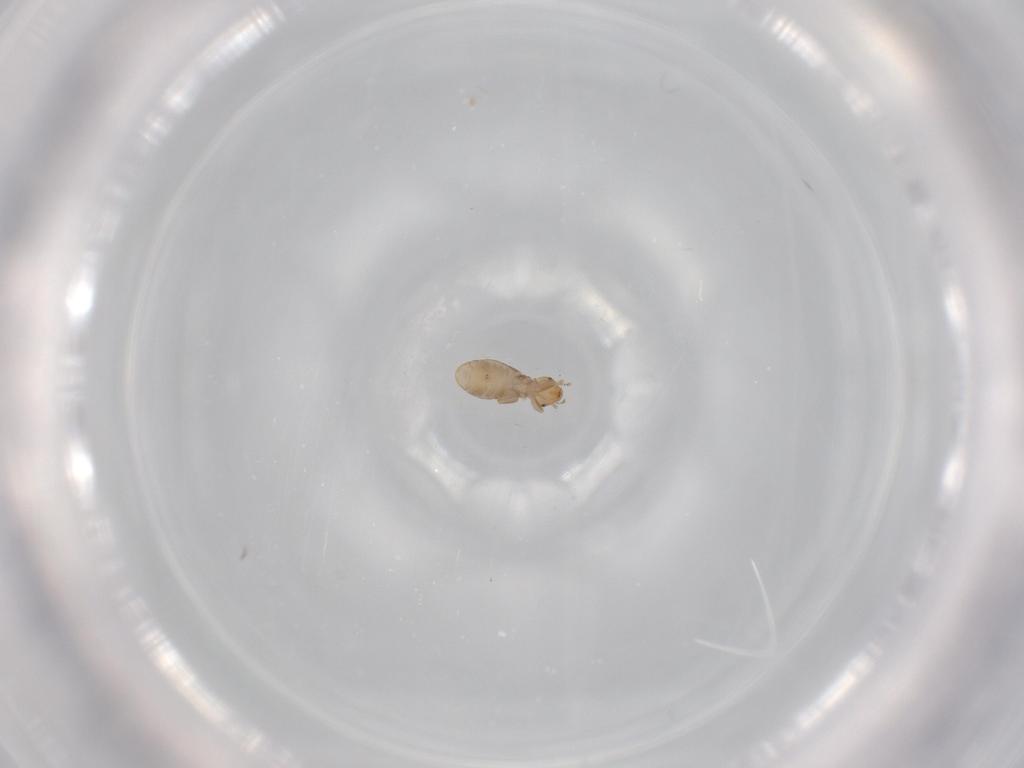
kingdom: Animalia
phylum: Arthropoda
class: Insecta
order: Psocodea
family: Liposcelididae
